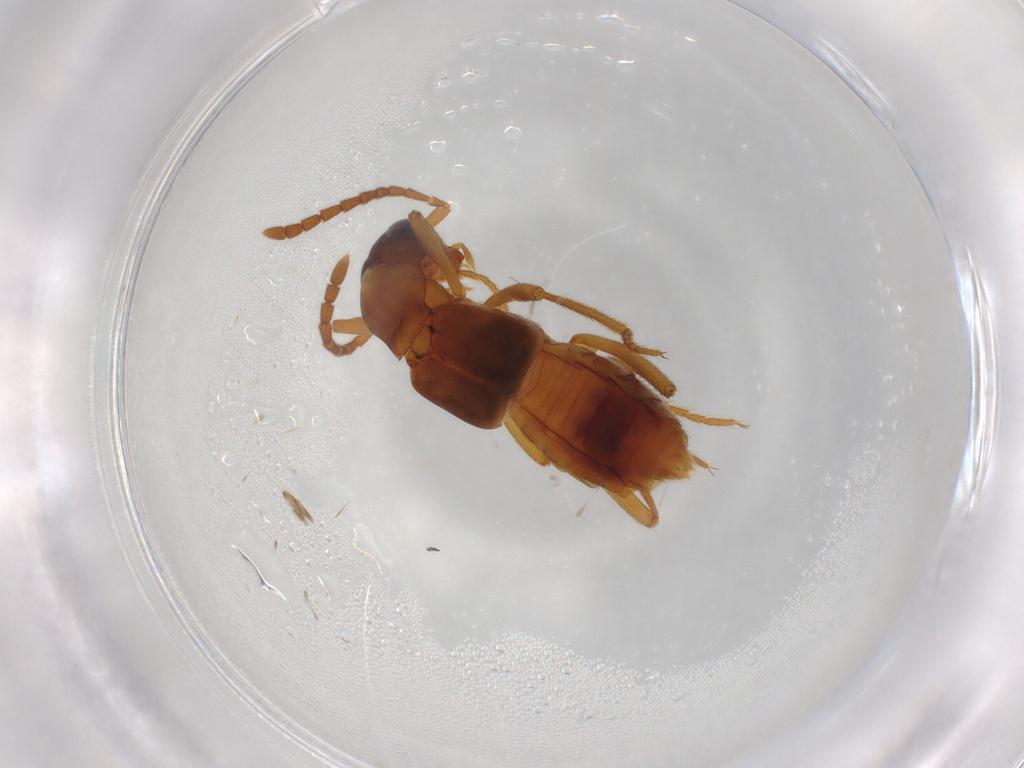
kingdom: Animalia
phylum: Arthropoda
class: Insecta
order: Coleoptera
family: Staphylinidae
